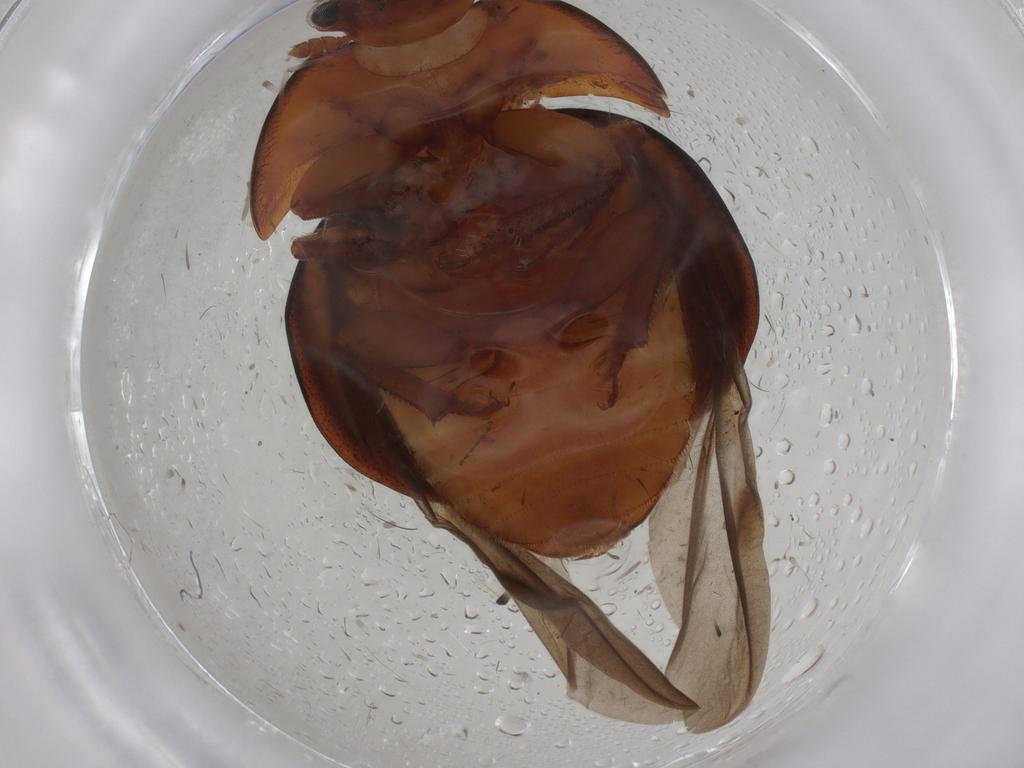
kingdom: Animalia
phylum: Arthropoda
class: Insecta
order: Coleoptera
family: Nitidulidae
